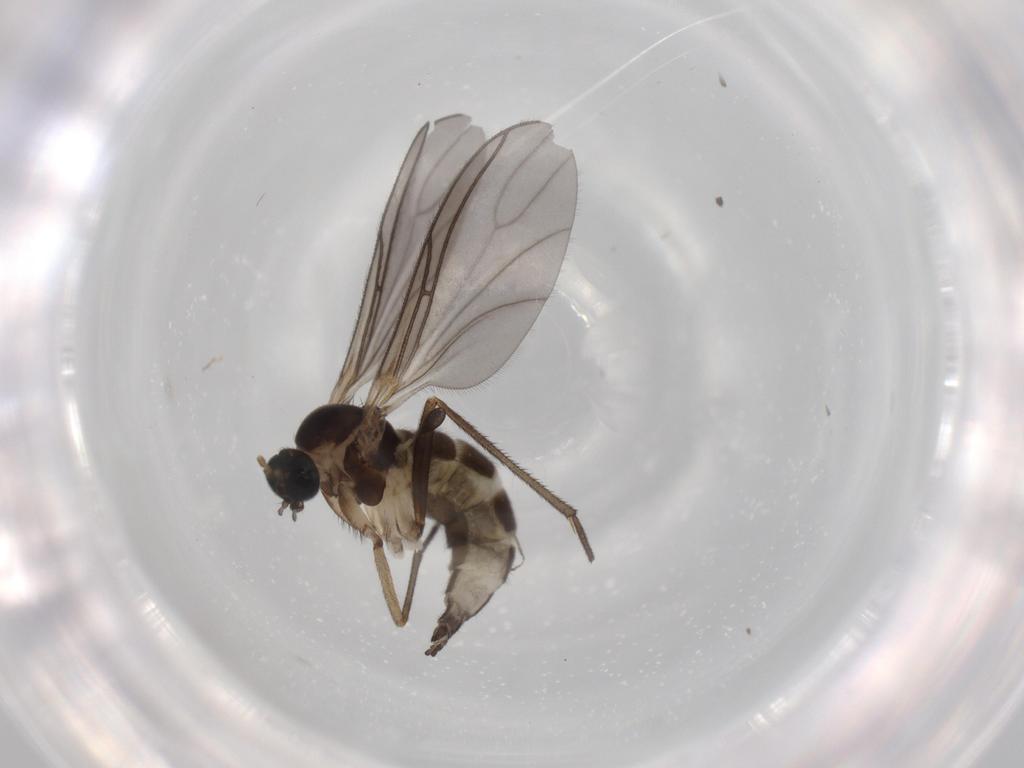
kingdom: Animalia
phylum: Arthropoda
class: Insecta
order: Diptera
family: Sciaridae
